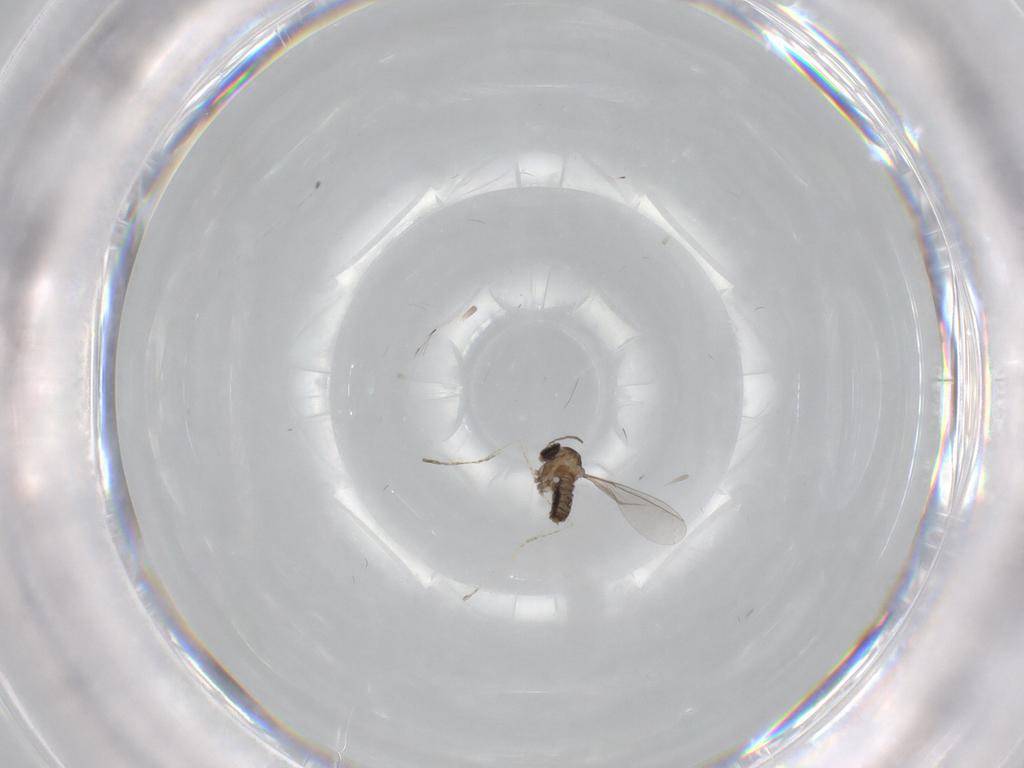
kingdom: Animalia
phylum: Arthropoda
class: Insecta
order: Diptera
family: Cecidomyiidae
